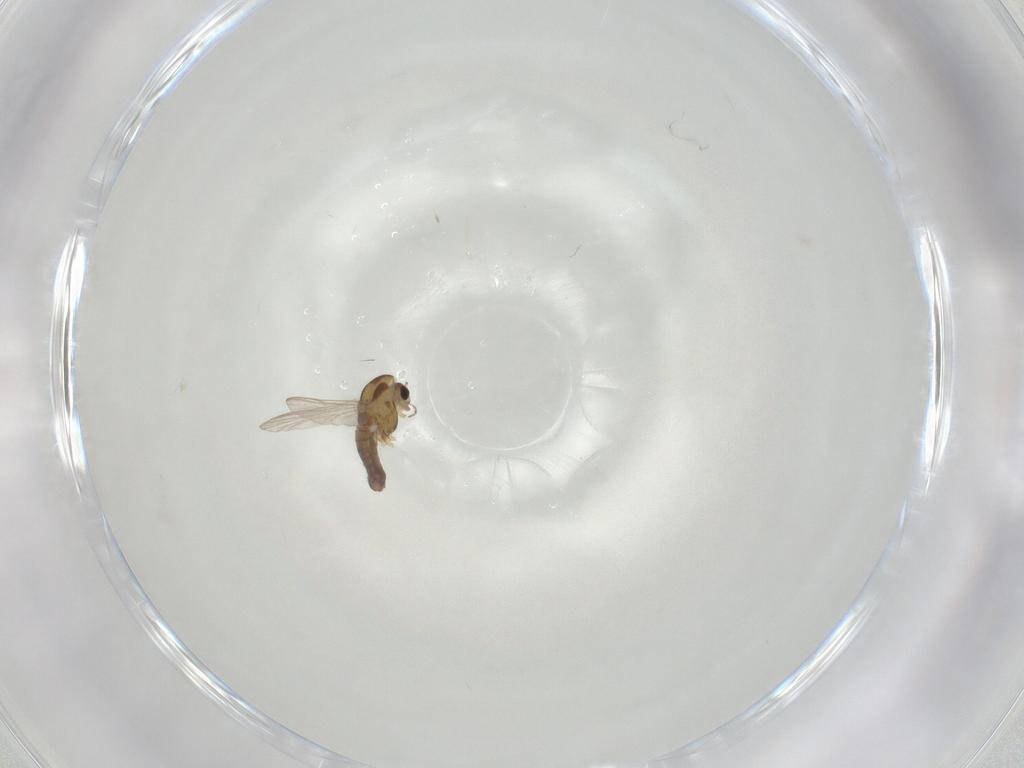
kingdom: Animalia
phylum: Arthropoda
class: Insecta
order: Diptera
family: Chironomidae
